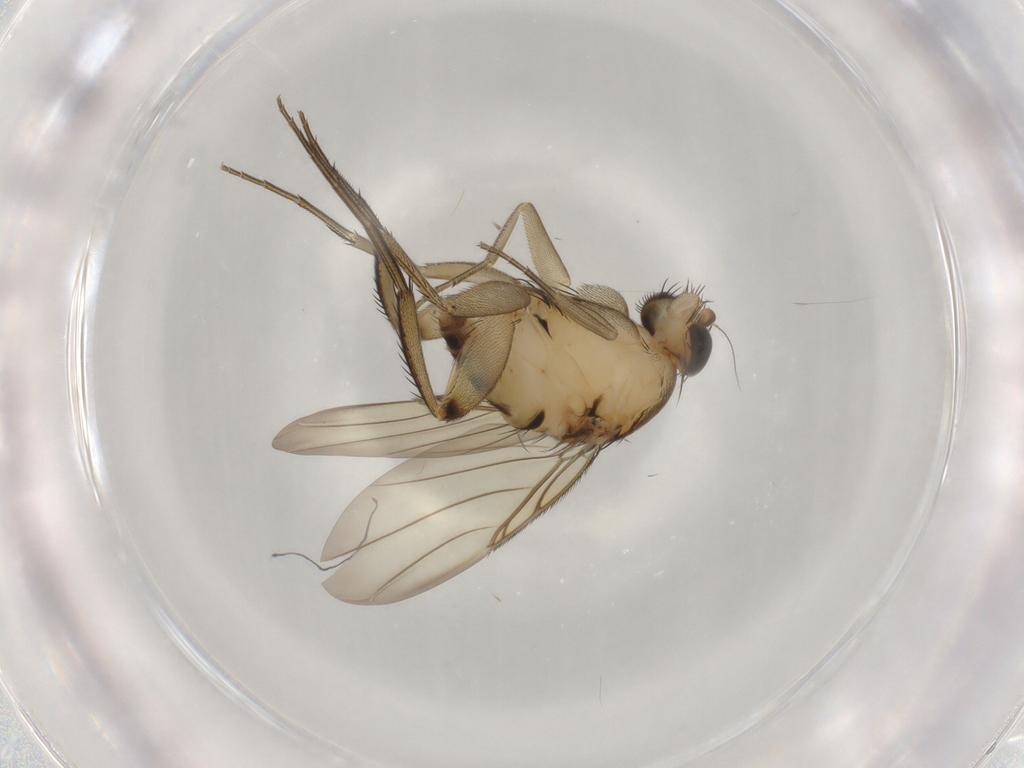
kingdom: Animalia
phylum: Arthropoda
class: Insecta
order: Diptera
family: Phoridae
